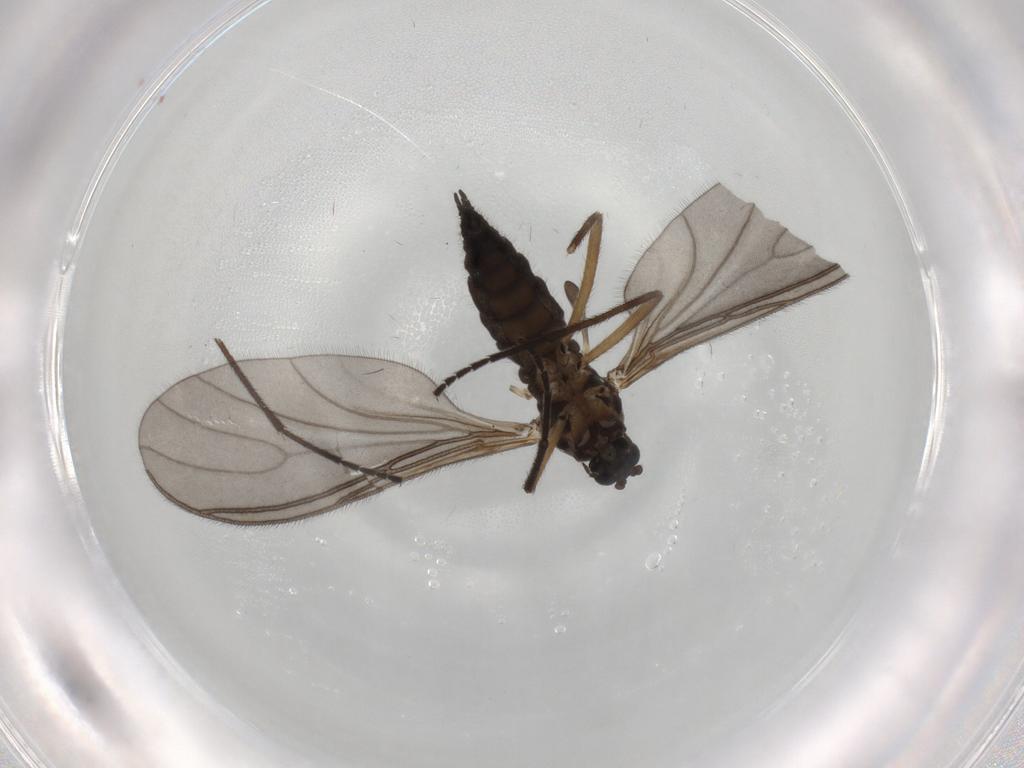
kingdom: Animalia
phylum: Arthropoda
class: Insecta
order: Diptera
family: Sciaridae
